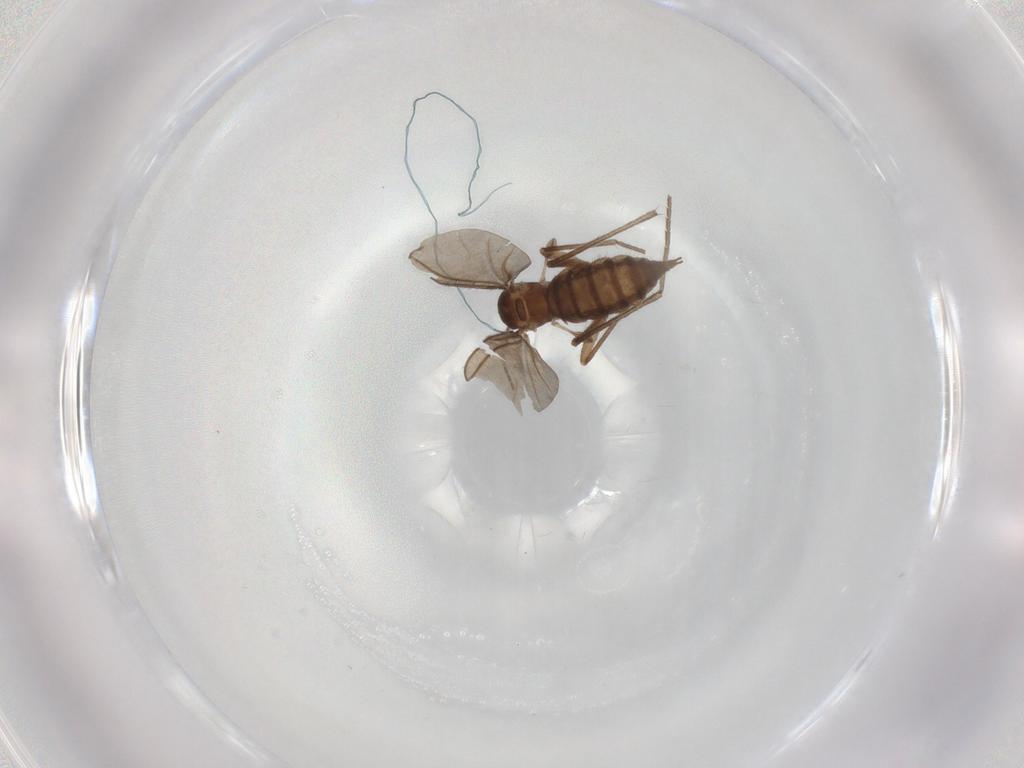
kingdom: Animalia
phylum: Arthropoda
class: Insecta
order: Diptera
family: Sciaridae
